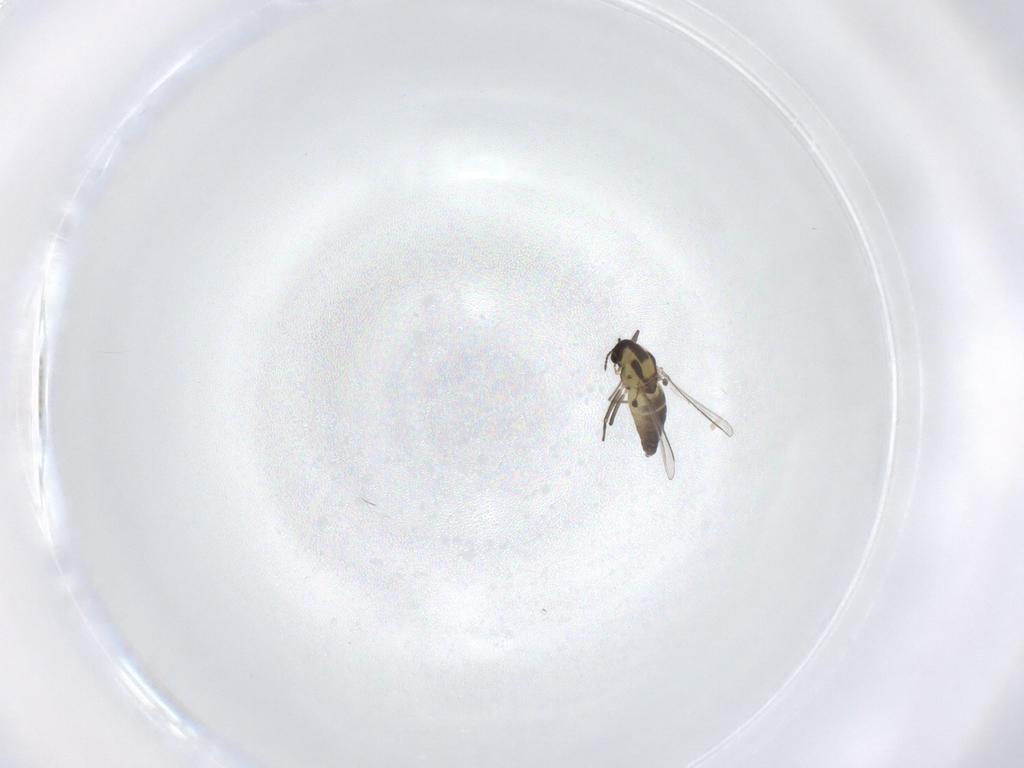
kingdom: Animalia
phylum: Arthropoda
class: Insecta
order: Diptera
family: Chironomidae
